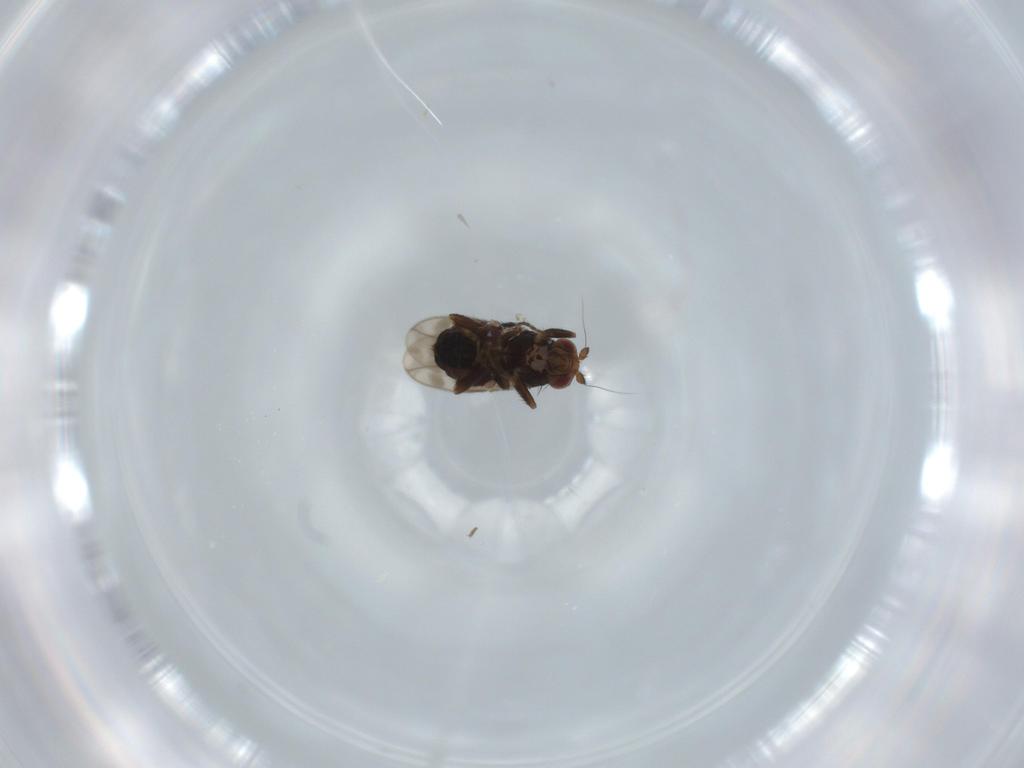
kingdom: Animalia
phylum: Arthropoda
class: Insecta
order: Diptera
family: Sphaeroceridae
